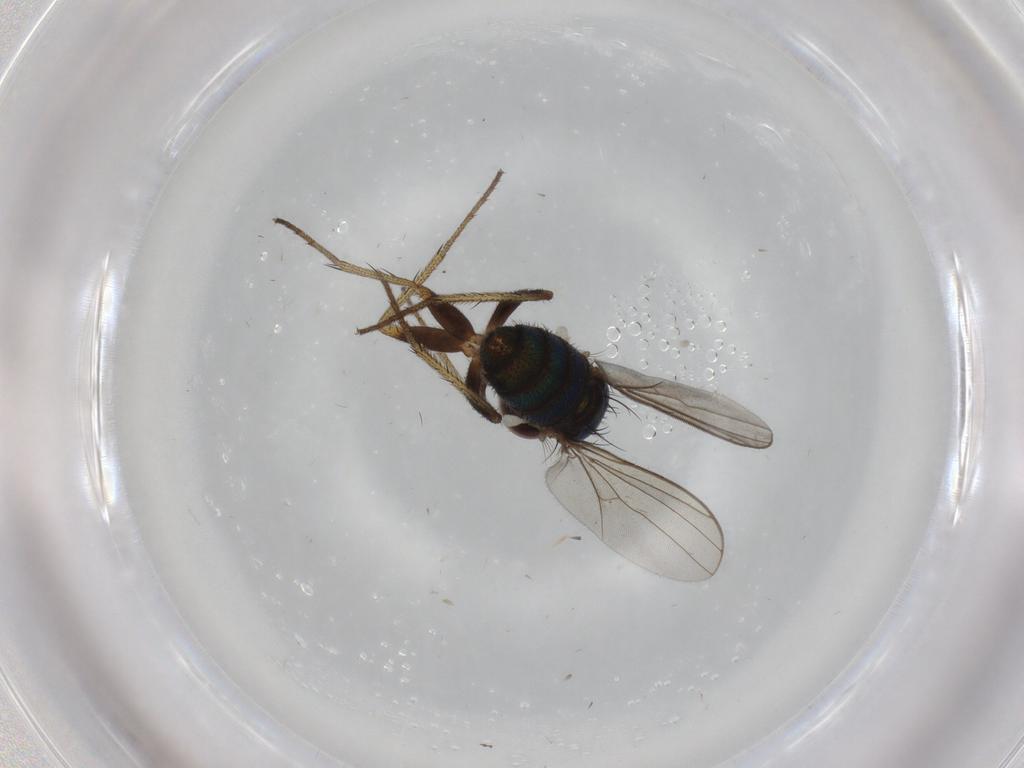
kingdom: Animalia
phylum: Arthropoda
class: Insecta
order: Diptera
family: Dolichopodidae
